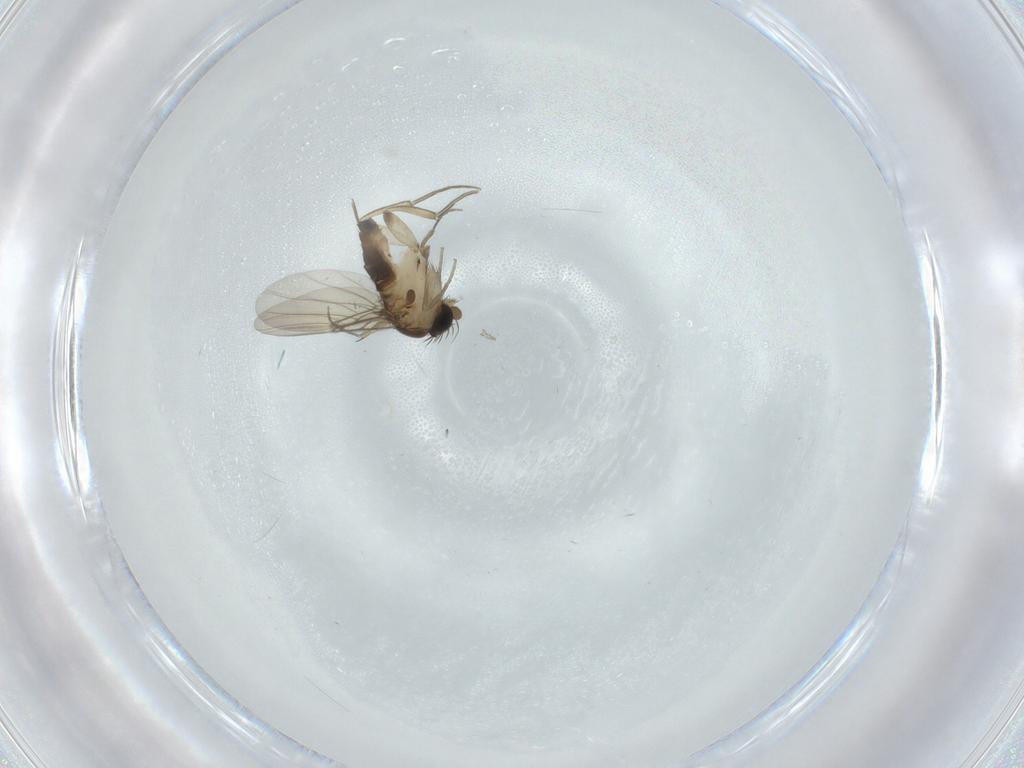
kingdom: Animalia
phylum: Arthropoda
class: Insecta
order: Diptera
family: Phoridae
